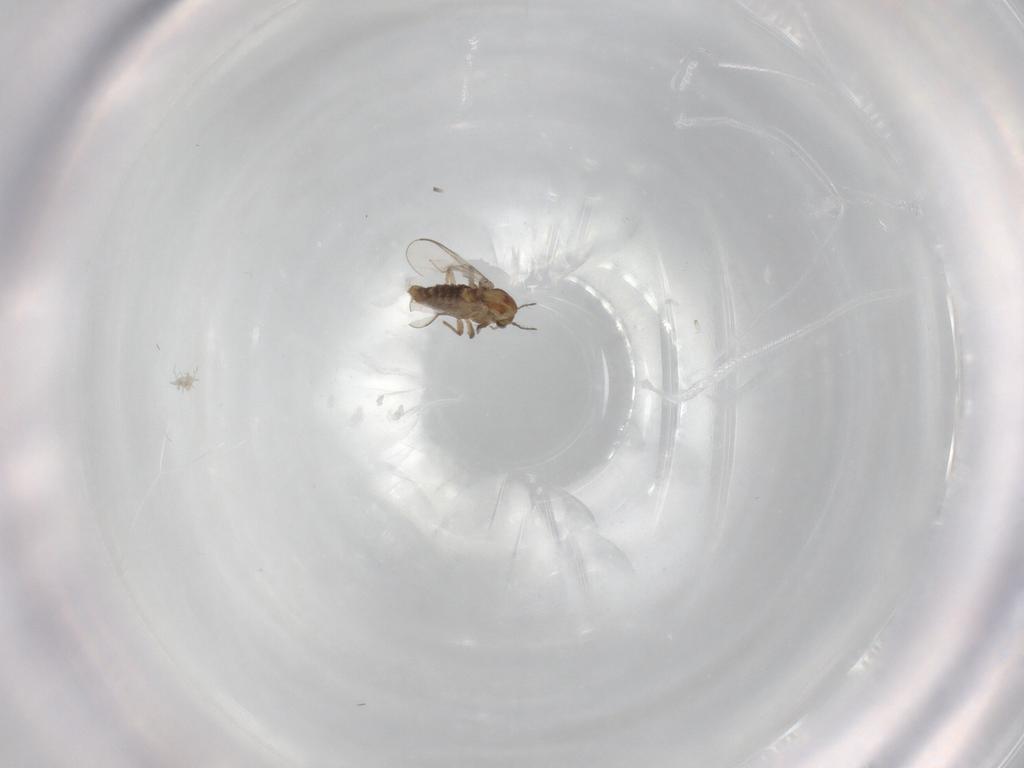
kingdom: Animalia
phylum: Arthropoda
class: Insecta
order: Diptera
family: Chironomidae
